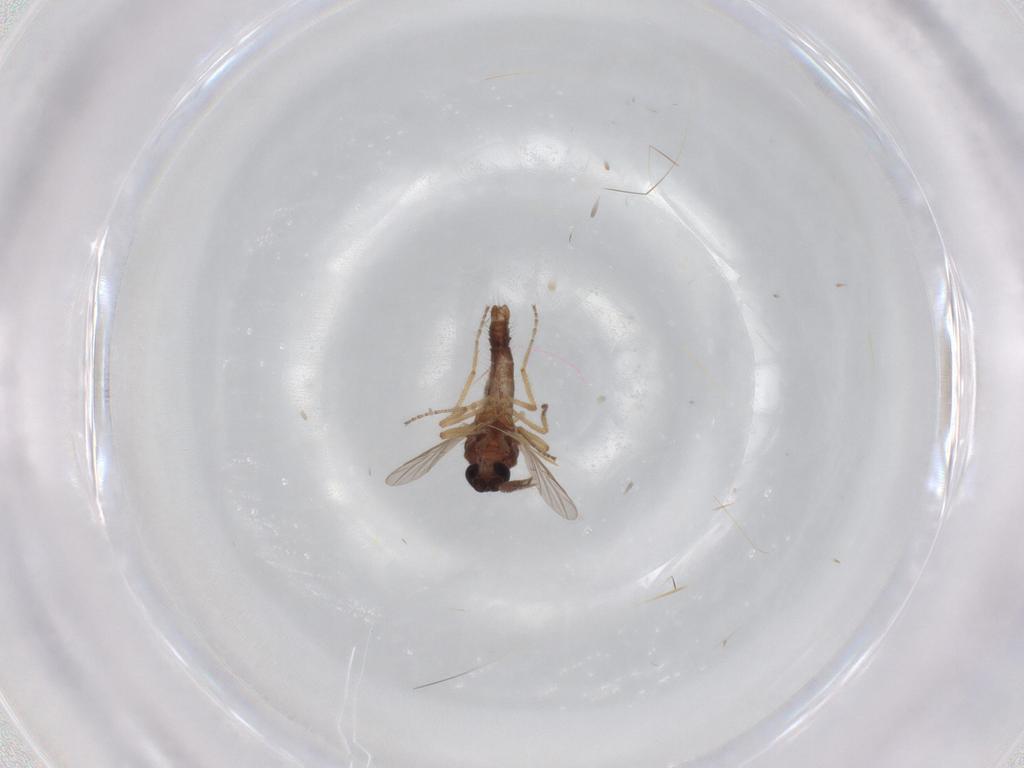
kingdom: Animalia
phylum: Arthropoda
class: Insecta
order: Diptera
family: Ceratopogonidae
